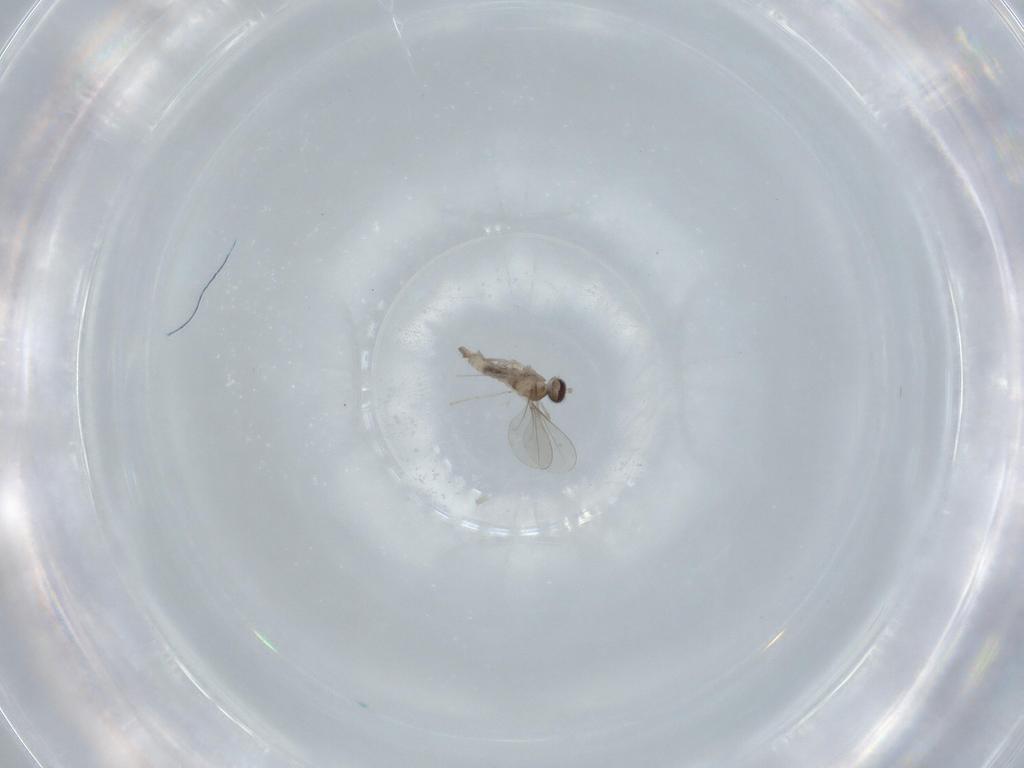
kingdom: Animalia
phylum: Arthropoda
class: Insecta
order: Diptera
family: Cecidomyiidae
